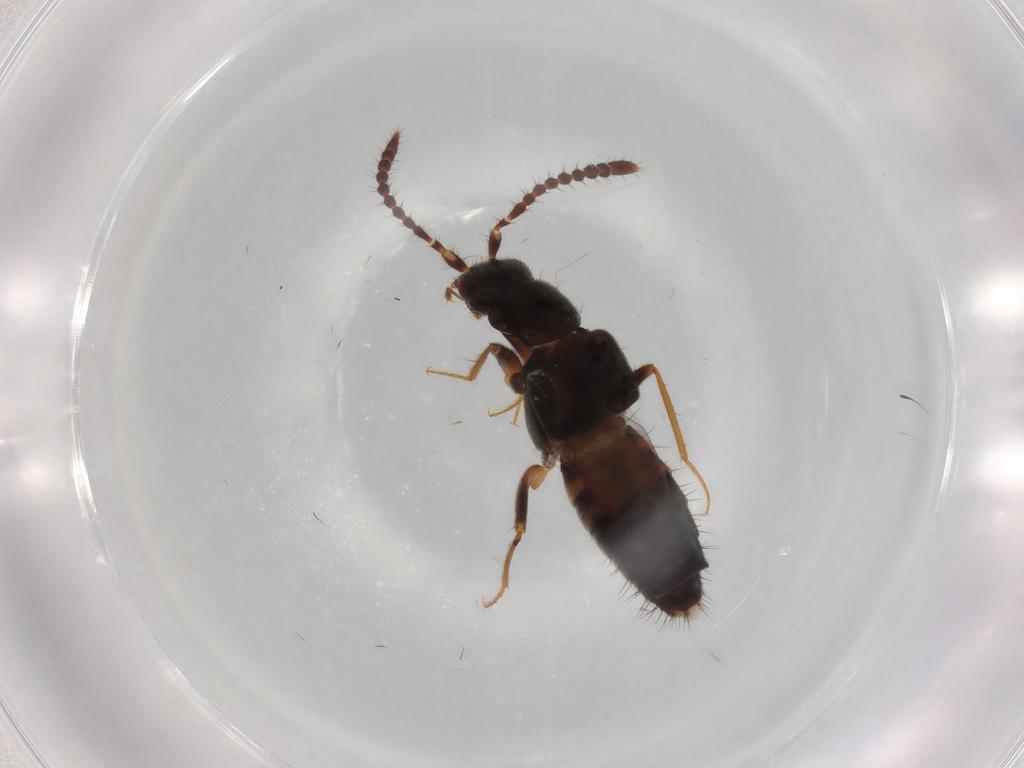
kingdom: Animalia
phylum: Arthropoda
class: Insecta
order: Coleoptera
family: Staphylinidae
